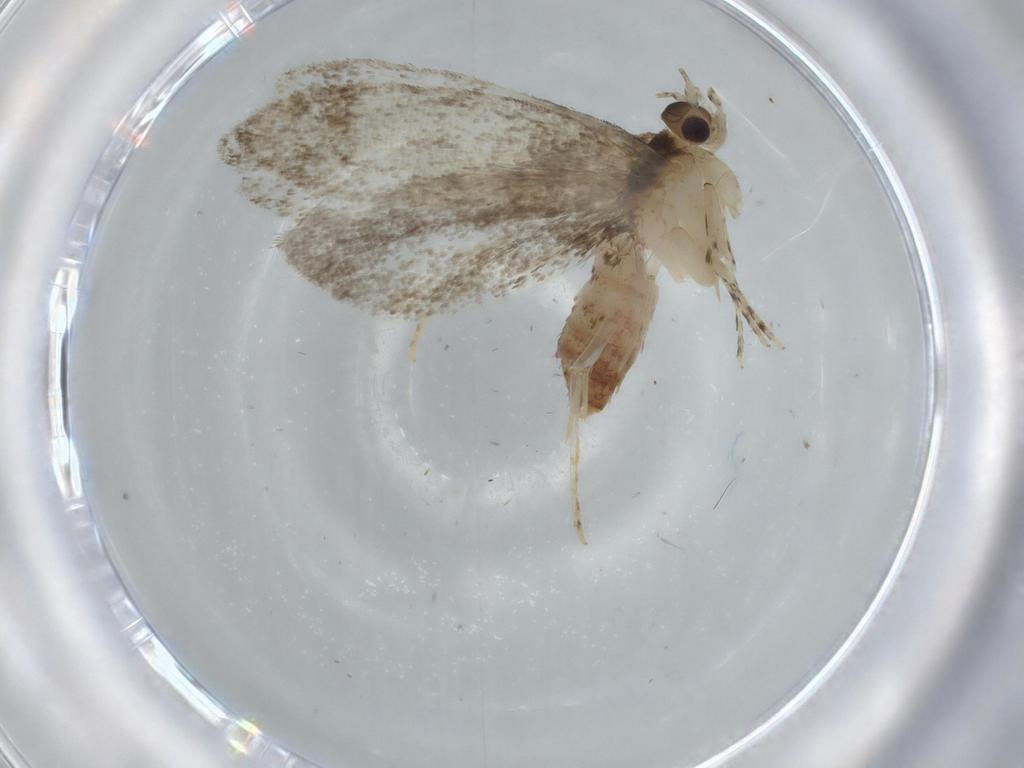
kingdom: Animalia
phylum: Arthropoda
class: Insecta
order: Lepidoptera
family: Tineidae
